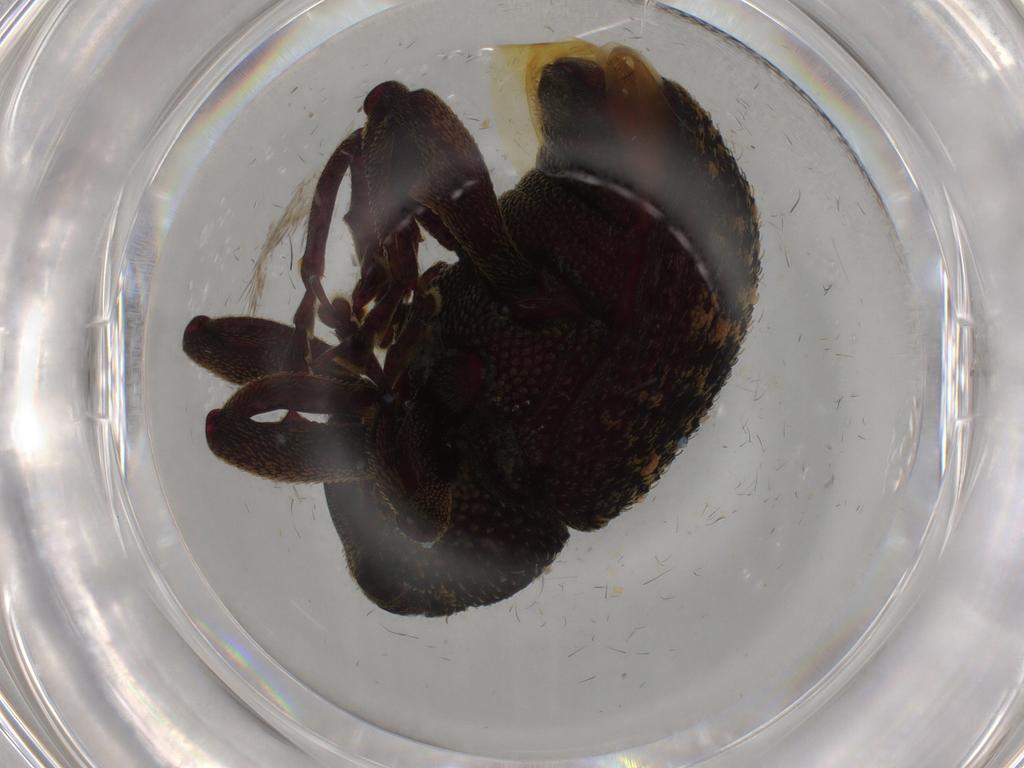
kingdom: Animalia
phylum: Arthropoda
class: Insecta
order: Coleoptera
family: Ptilodactylidae
